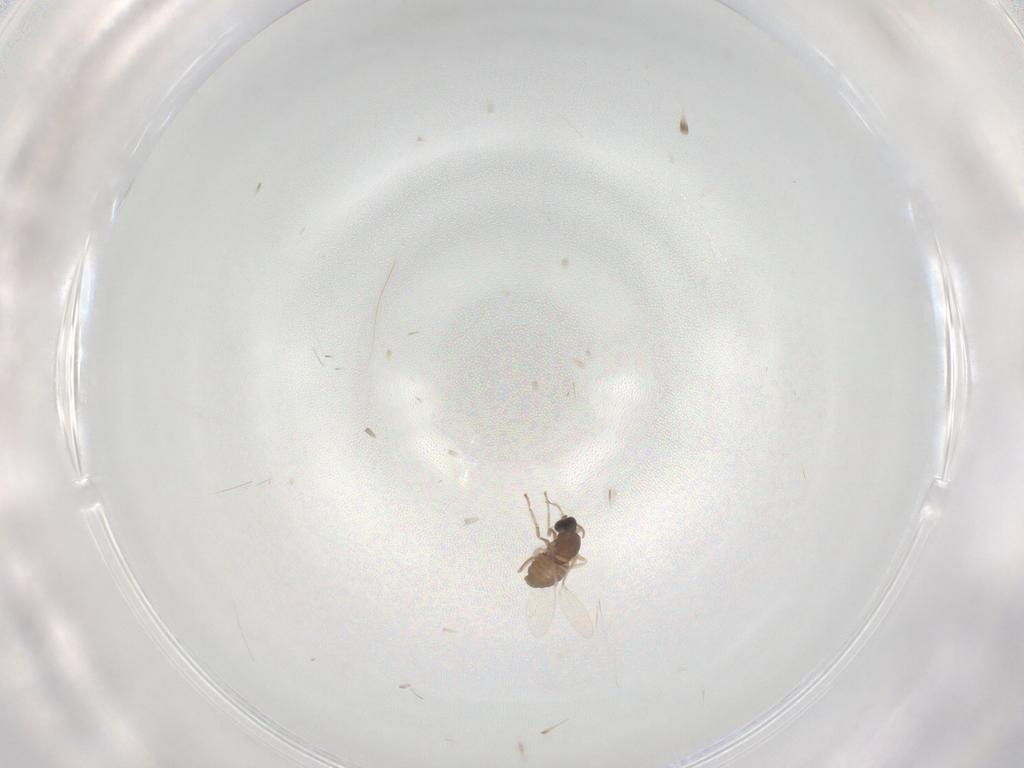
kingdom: Animalia
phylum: Arthropoda
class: Insecta
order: Diptera
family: Cecidomyiidae
